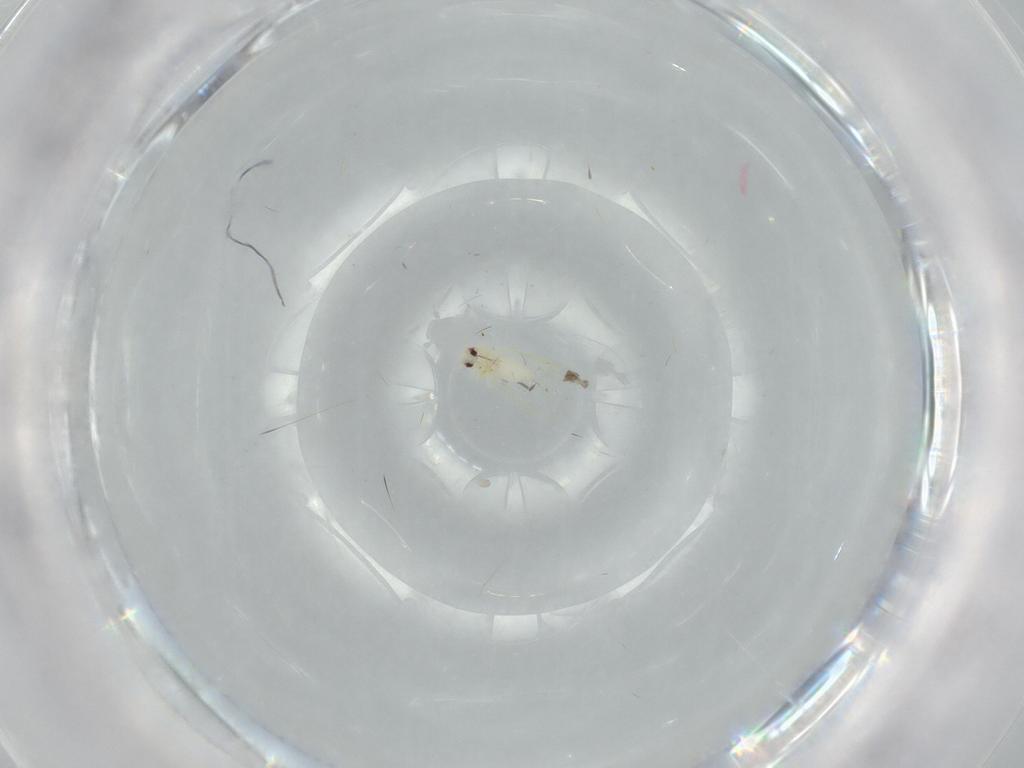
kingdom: Animalia
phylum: Arthropoda
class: Insecta
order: Hemiptera
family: Aleyrodidae
